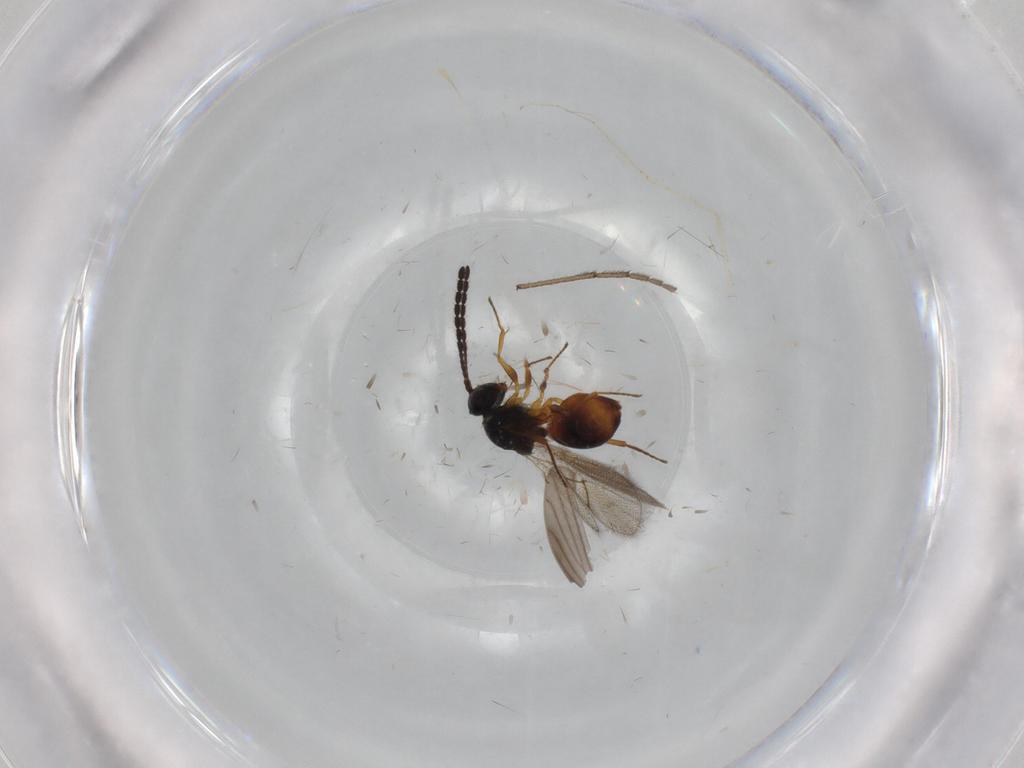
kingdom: Animalia
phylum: Arthropoda
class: Insecta
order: Hymenoptera
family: Figitidae
